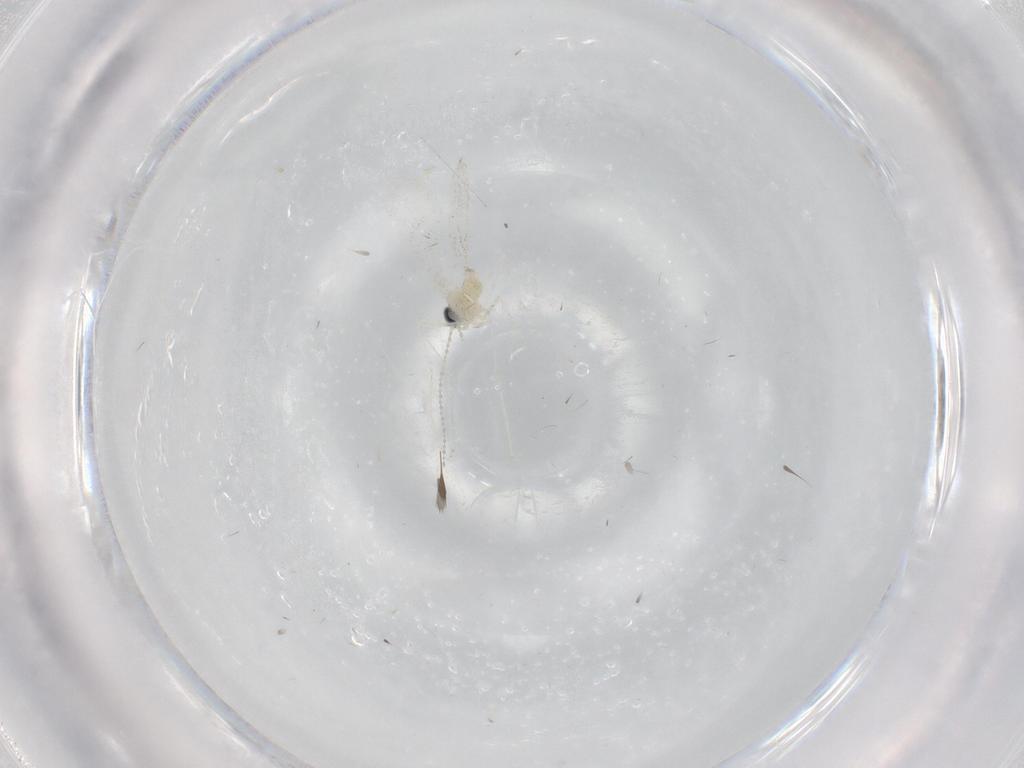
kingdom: Animalia
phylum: Arthropoda
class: Insecta
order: Diptera
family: Cecidomyiidae
